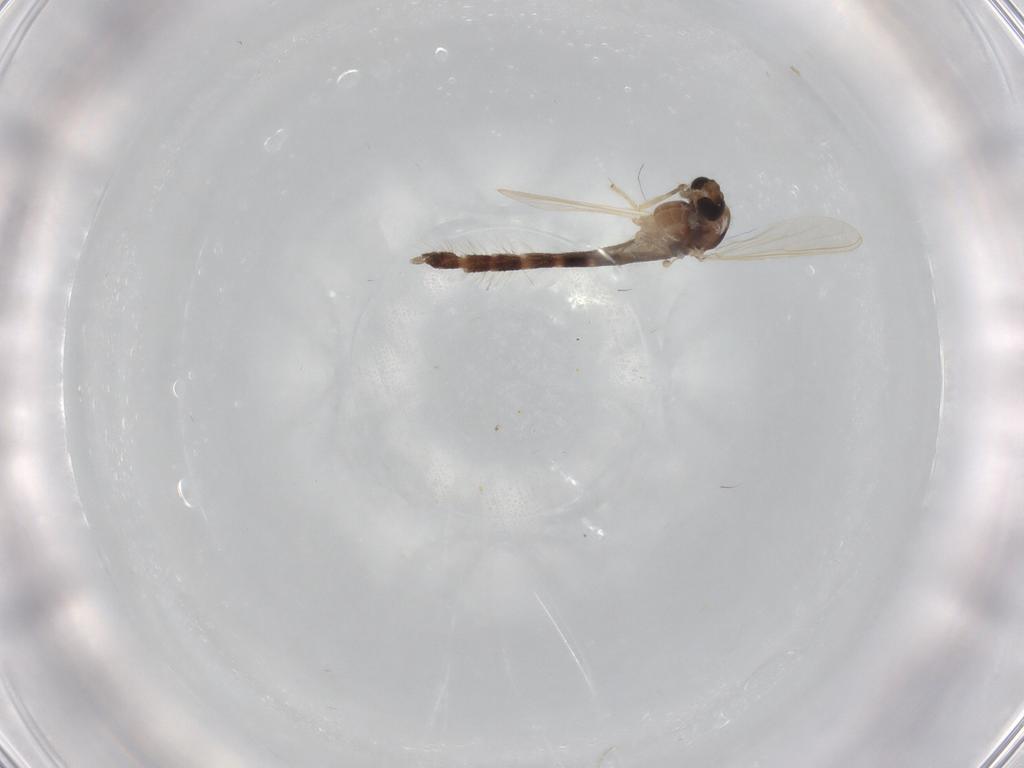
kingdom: Animalia
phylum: Arthropoda
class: Insecta
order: Diptera
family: Chironomidae
